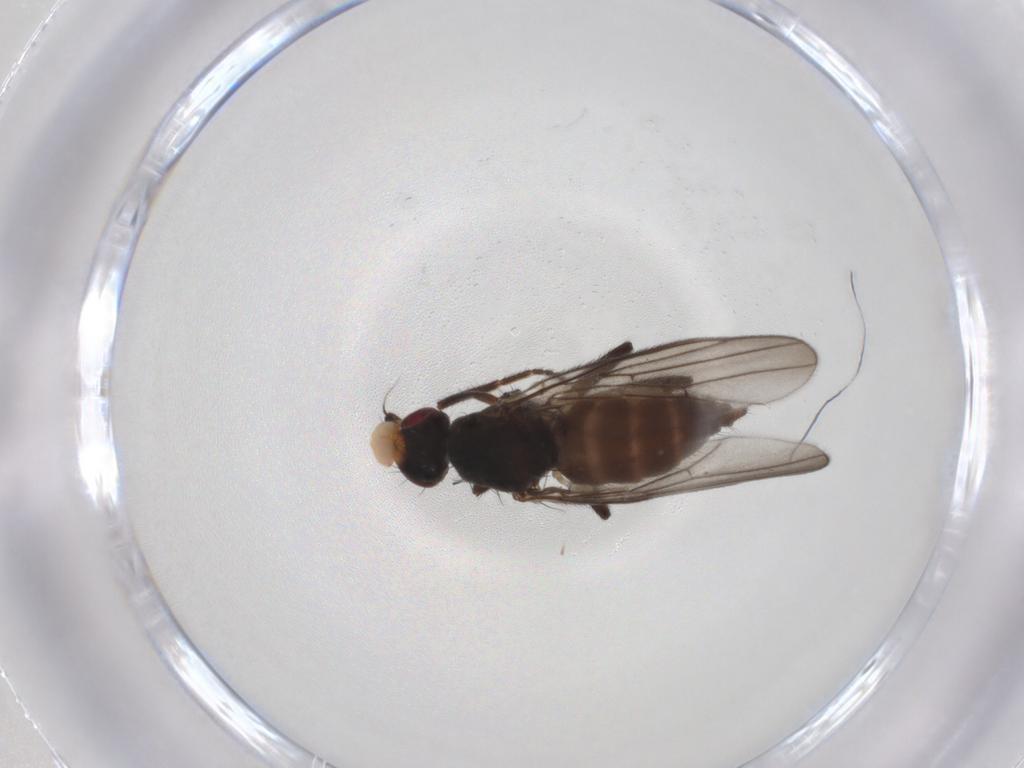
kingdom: Animalia
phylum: Arthropoda
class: Insecta
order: Diptera
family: Chloropidae
